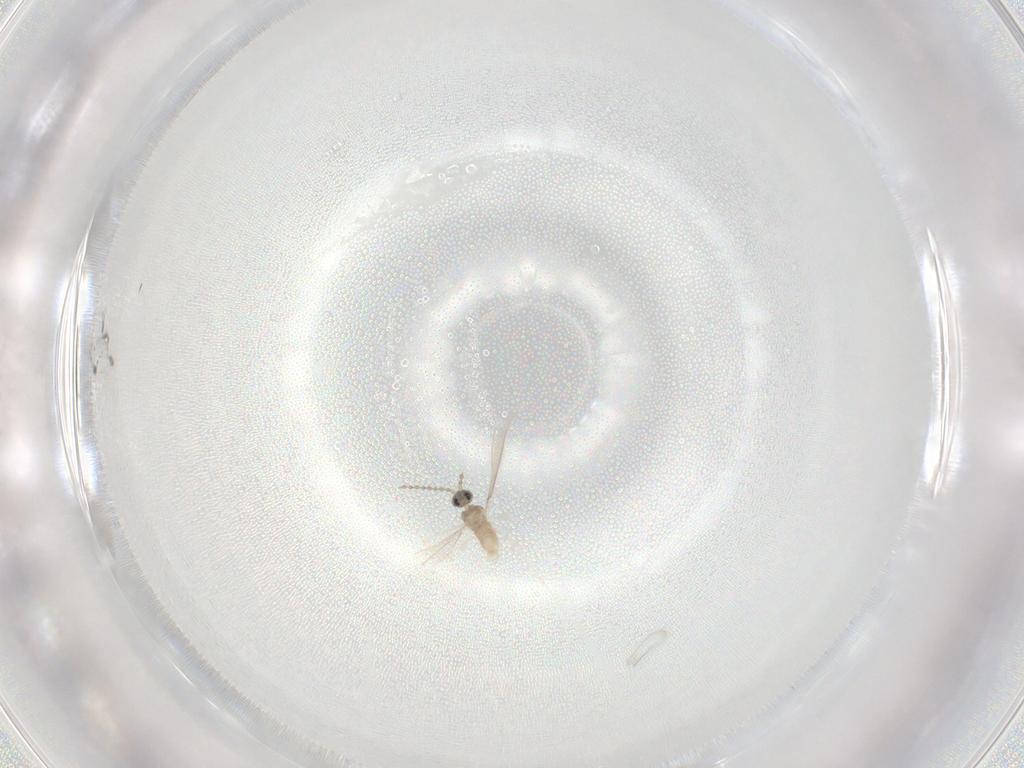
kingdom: Animalia
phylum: Arthropoda
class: Insecta
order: Diptera
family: Cecidomyiidae
